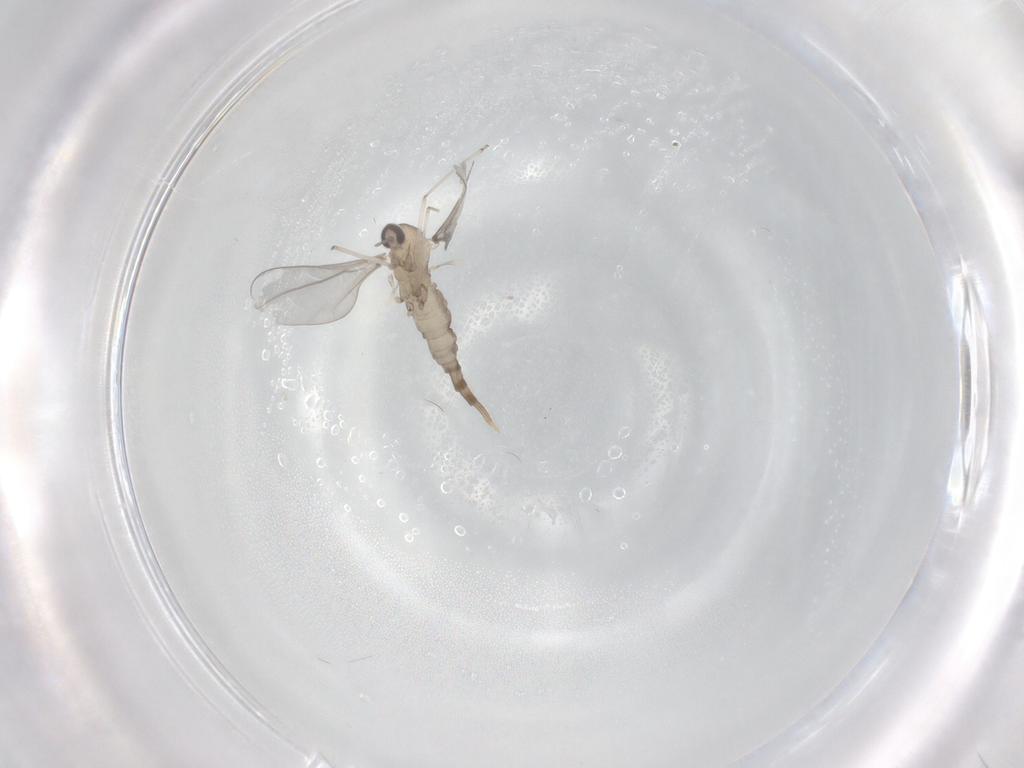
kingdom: Animalia
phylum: Arthropoda
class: Insecta
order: Diptera
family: Cecidomyiidae
